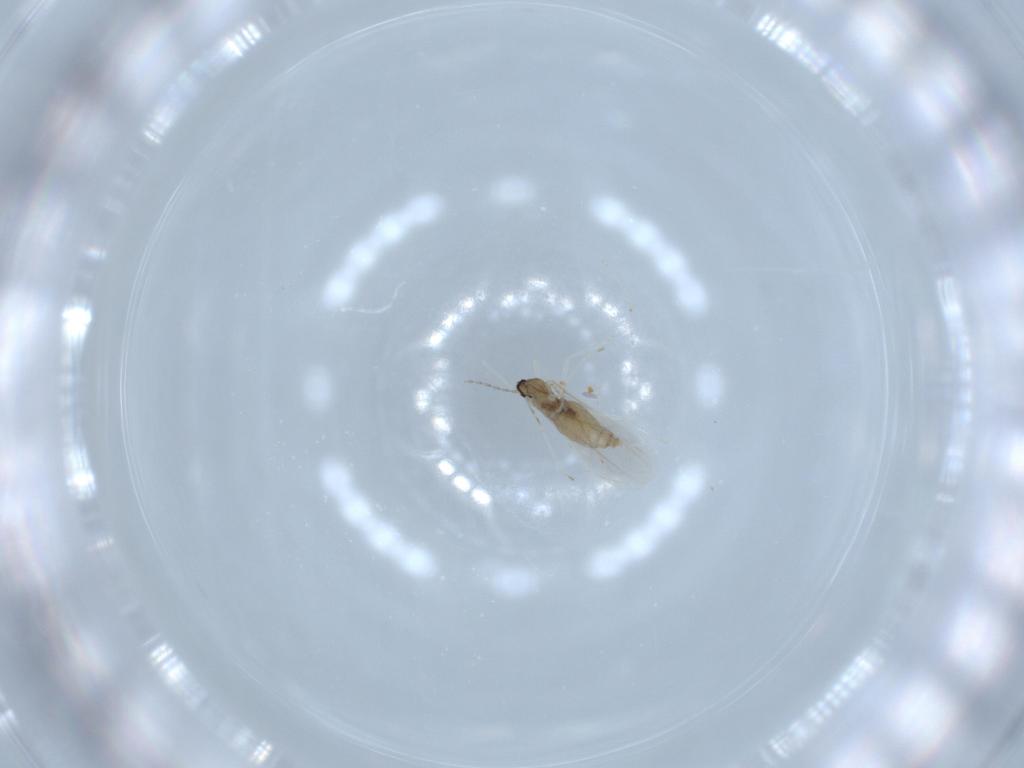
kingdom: Animalia
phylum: Arthropoda
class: Insecta
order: Diptera
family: Cecidomyiidae
